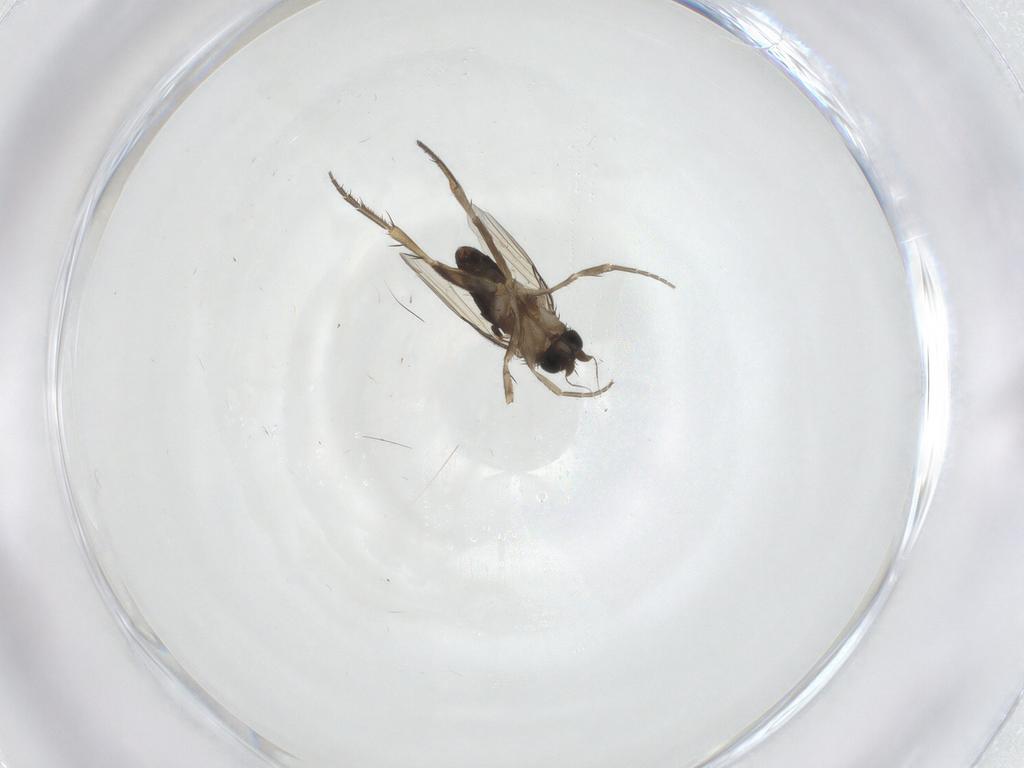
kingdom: Animalia
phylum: Arthropoda
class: Insecta
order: Diptera
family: Phoridae
